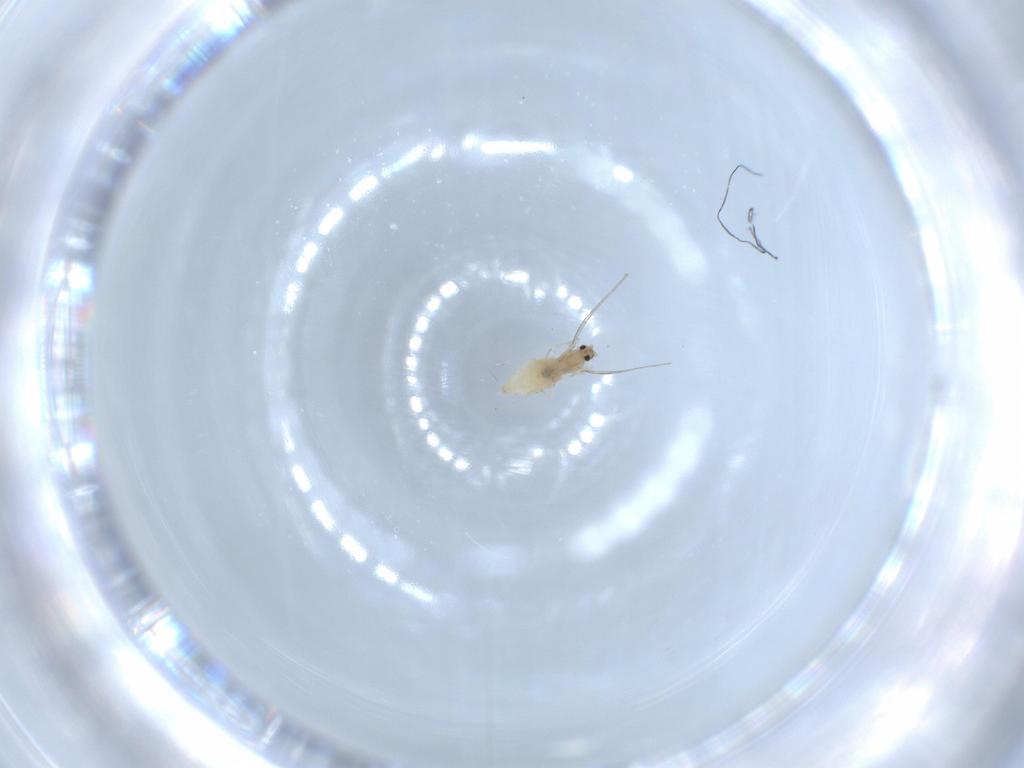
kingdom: Animalia
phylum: Arthropoda
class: Insecta
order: Diptera
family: Cecidomyiidae
